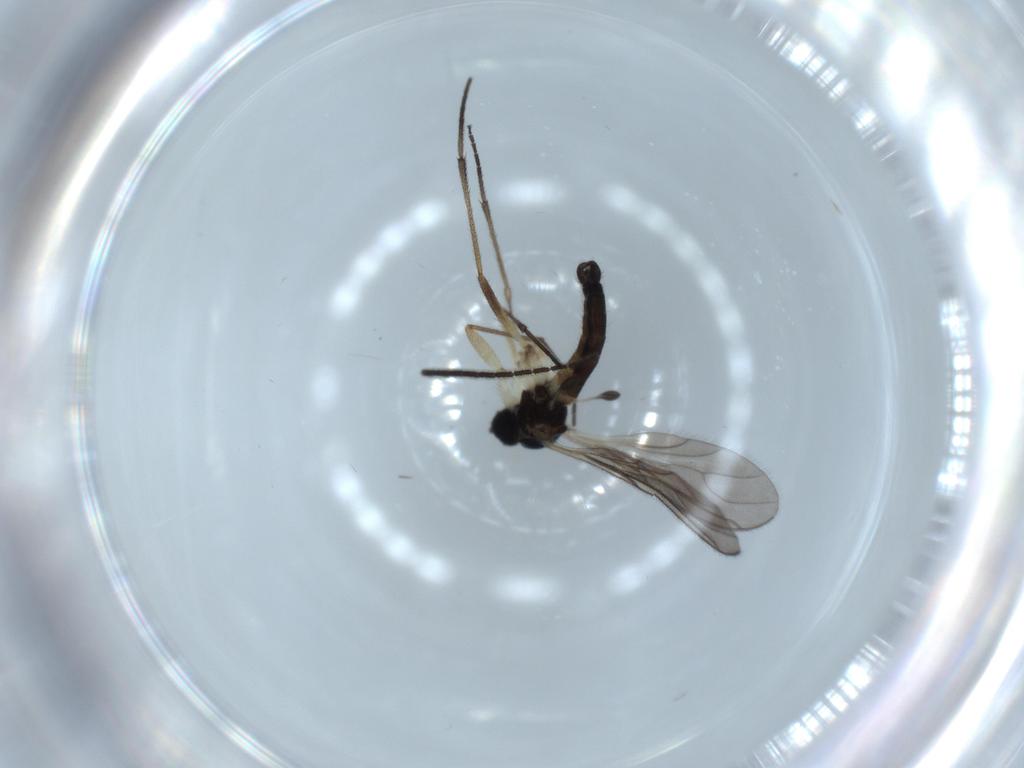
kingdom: Animalia
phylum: Arthropoda
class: Insecta
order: Diptera
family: Sciaridae
